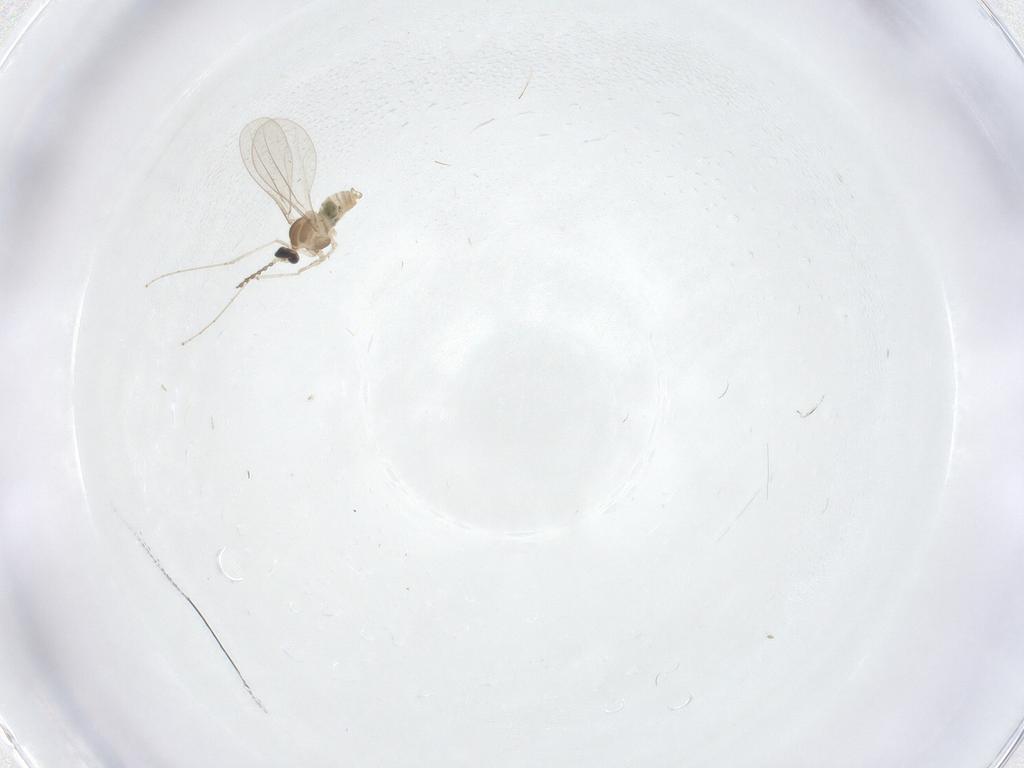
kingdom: Animalia
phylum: Arthropoda
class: Insecta
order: Diptera
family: Cecidomyiidae
